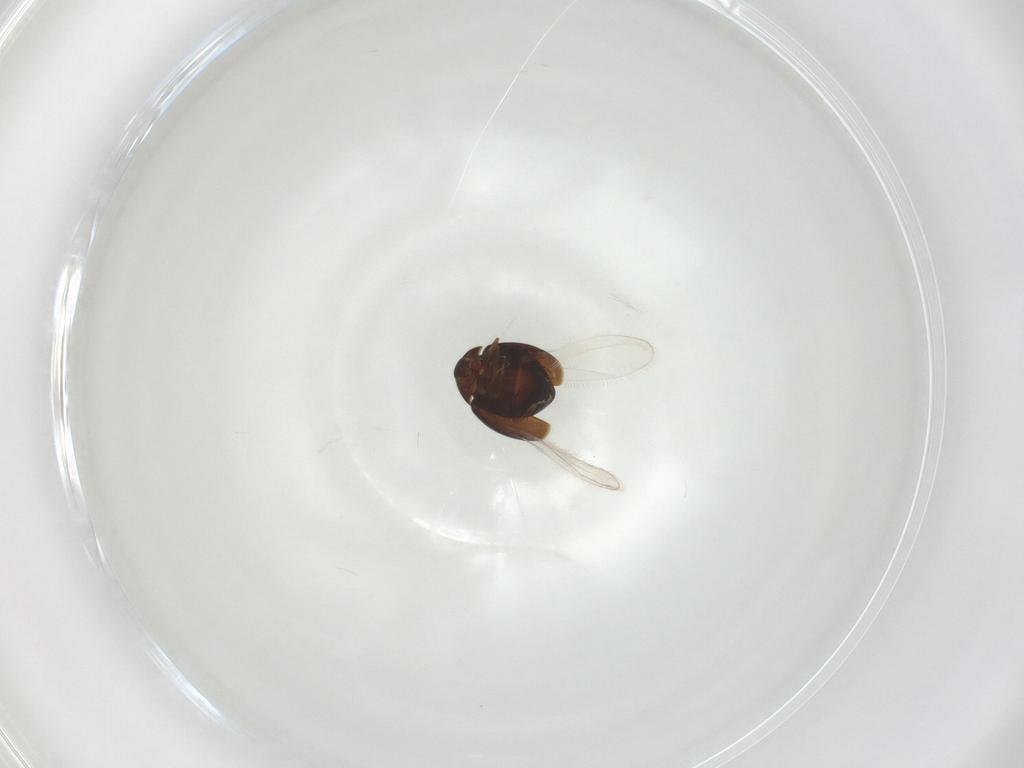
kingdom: Animalia
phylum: Arthropoda
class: Insecta
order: Coleoptera
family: Corylophidae
